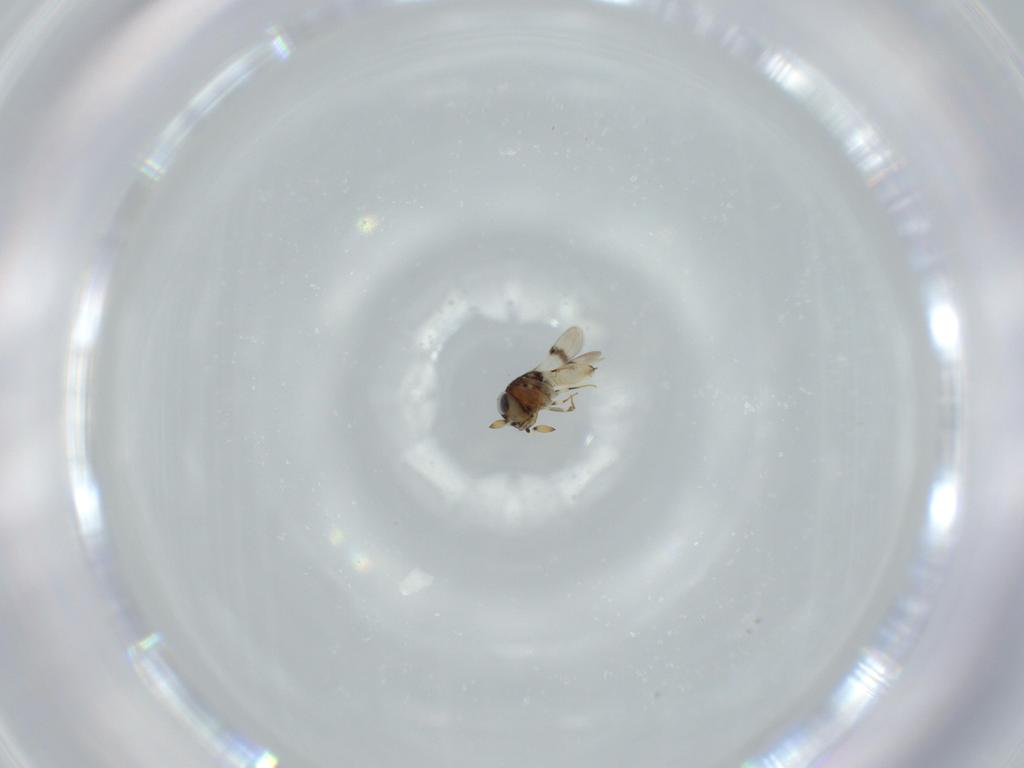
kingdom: Animalia
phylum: Arthropoda
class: Insecta
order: Hymenoptera
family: Scelionidae
